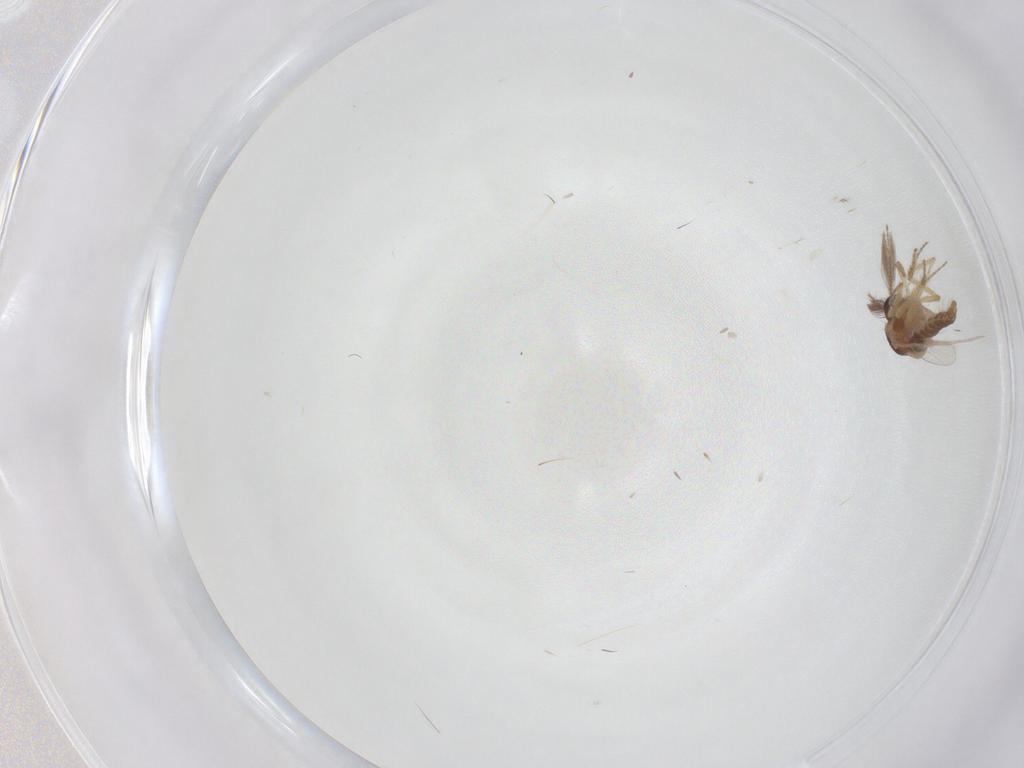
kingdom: Animalia
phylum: Arthropoda
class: Insecta
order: Diptera
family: Ceratopogonidae
